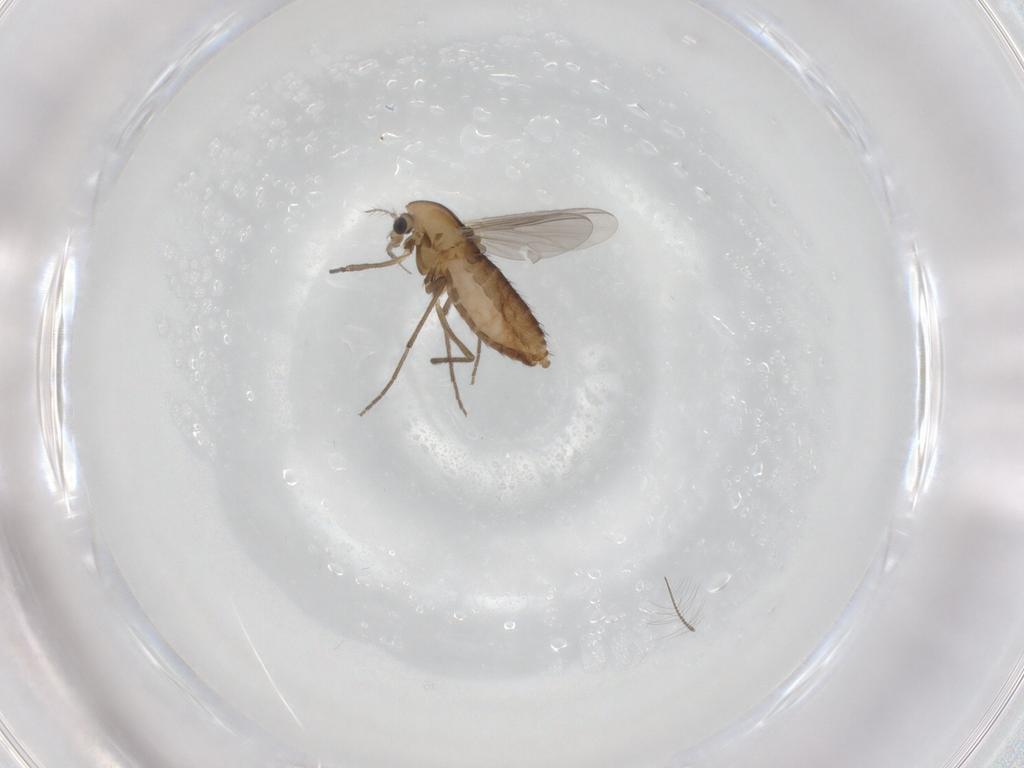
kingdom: Animalia
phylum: Arthropoda
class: Insecta
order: Diptera
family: Chironomidae
